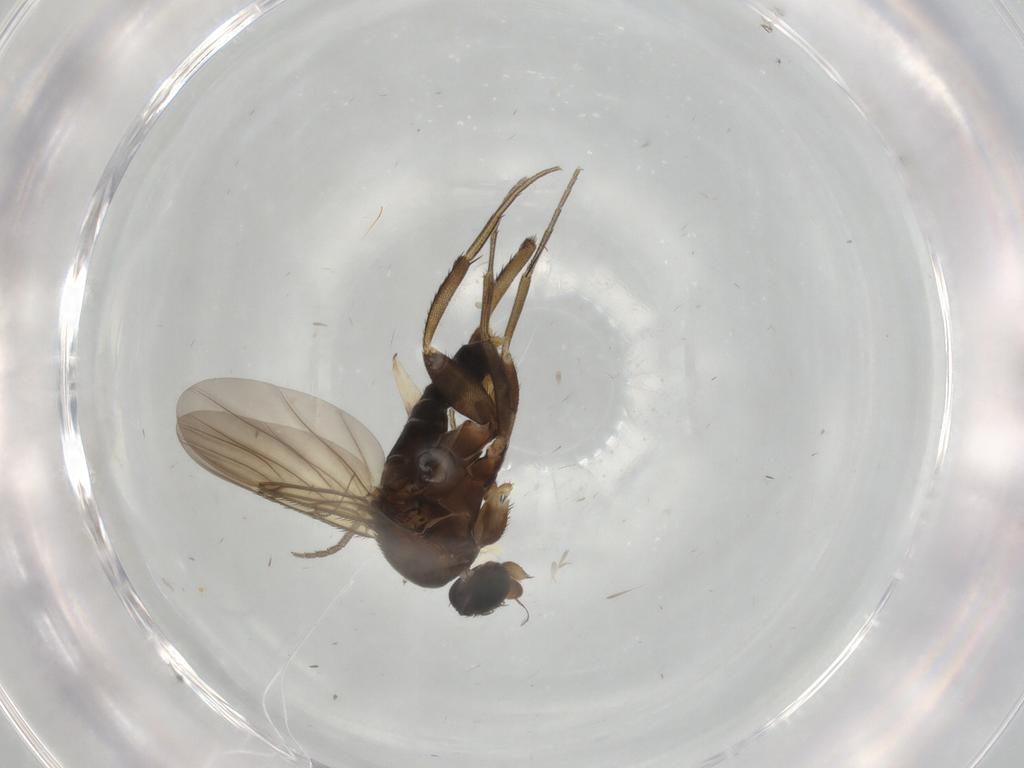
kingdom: Animalia
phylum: Arthropoda
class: Insecta
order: Diptera
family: Phoridae
